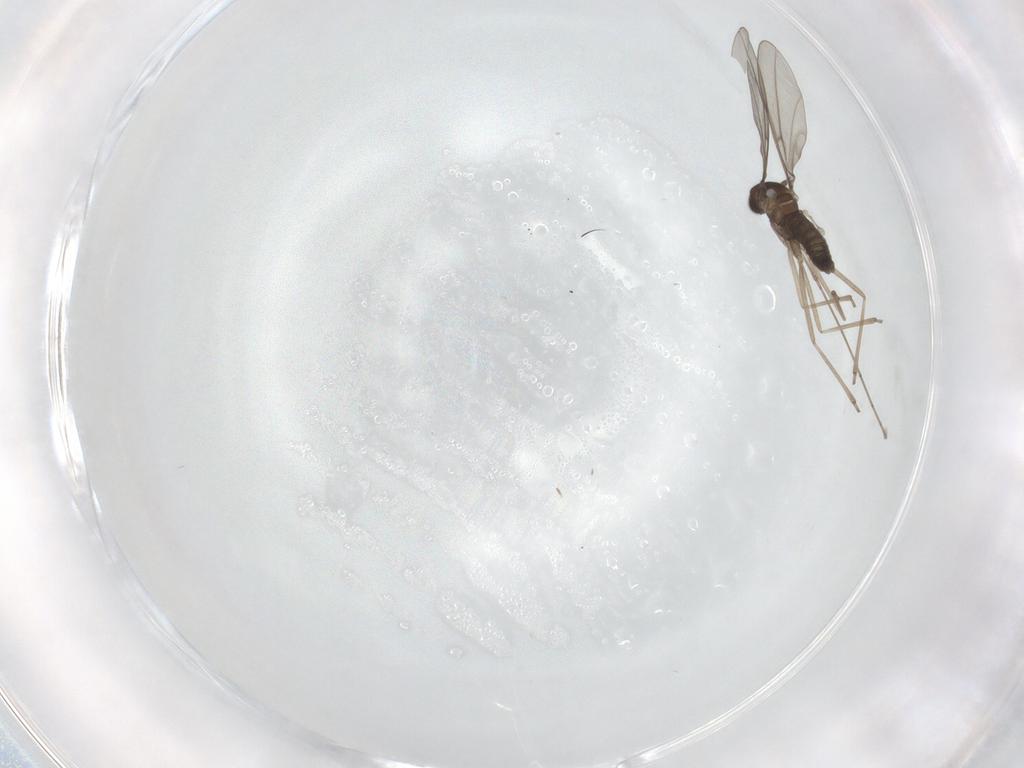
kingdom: Animalia
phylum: Arthropoda
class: Insecta
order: Diptera
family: Cecidomyiidae
